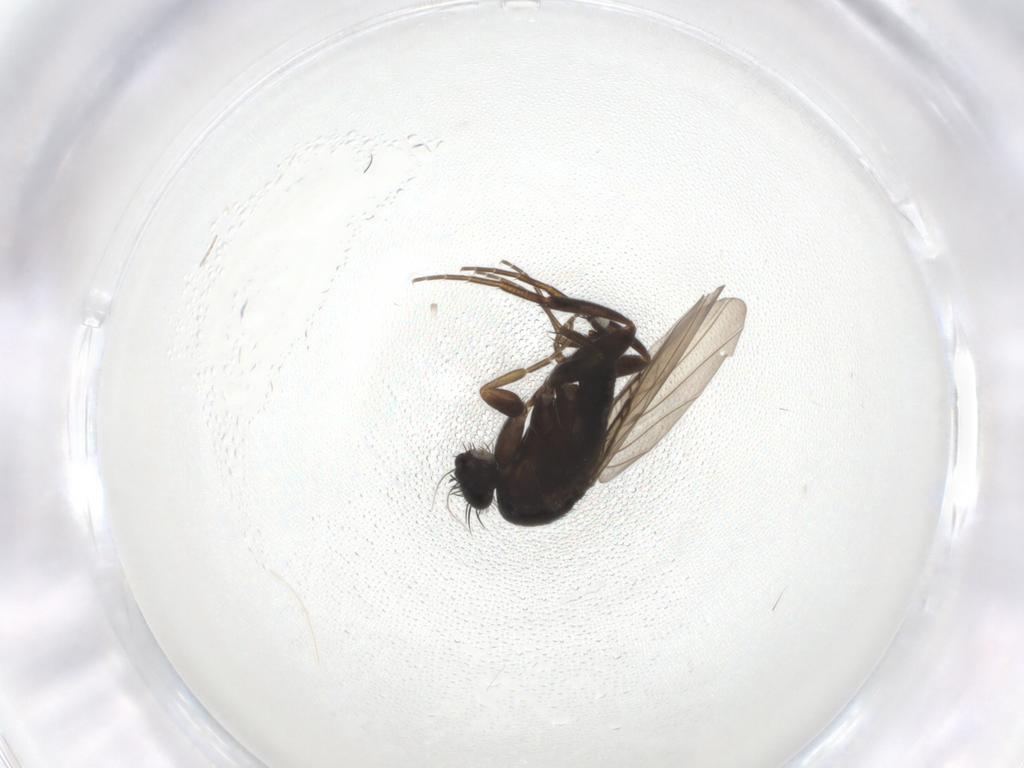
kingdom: Animalia
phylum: Arthropoda
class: Insecta
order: Diptera
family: Phoridae
